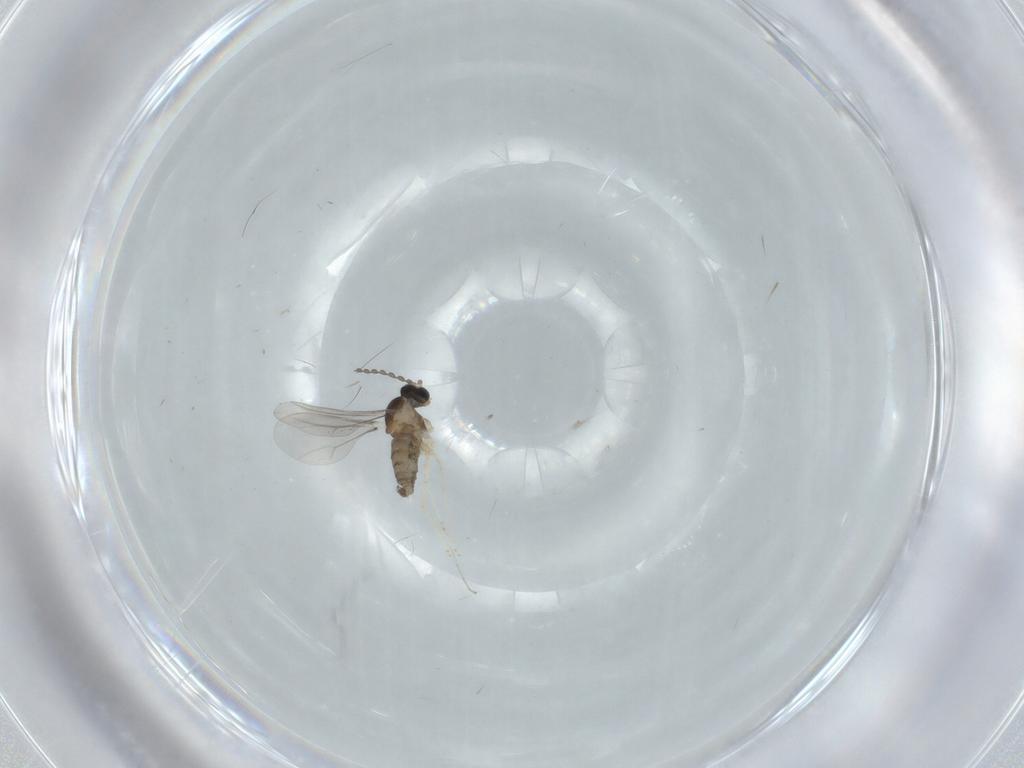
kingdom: Animalia
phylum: Arthropoda
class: Insecta
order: Diptera
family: Cecidomyiidae
